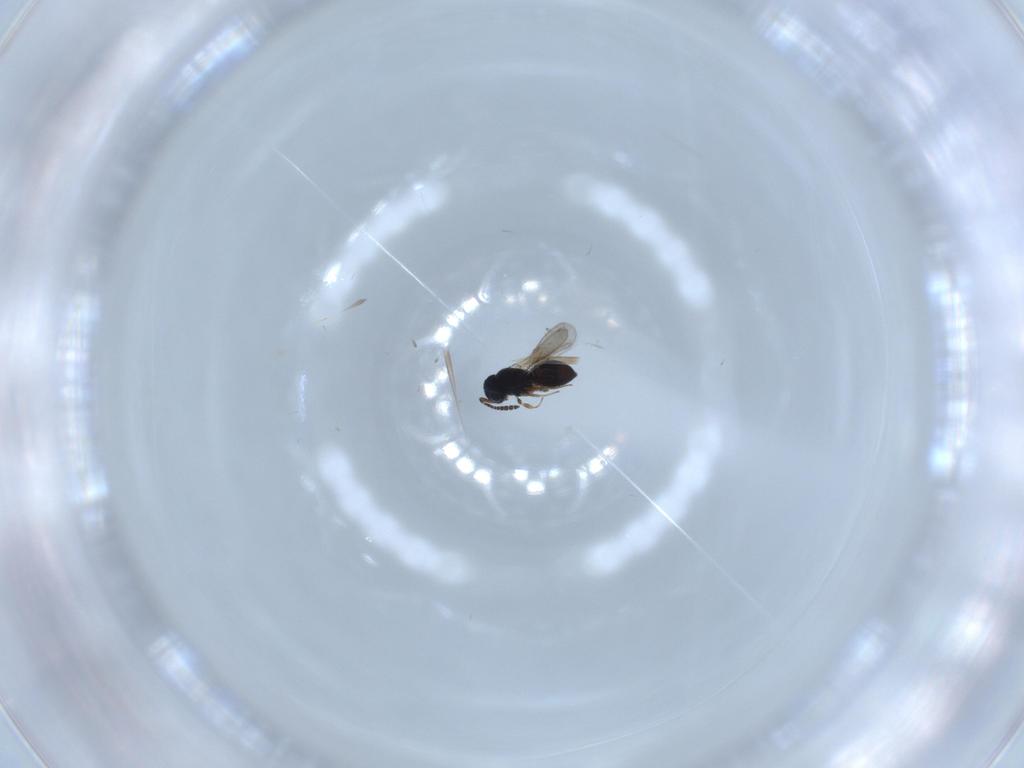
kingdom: Animalia
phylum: Arthropoda
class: Insecta
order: Hymenoptera
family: Scelionidae
